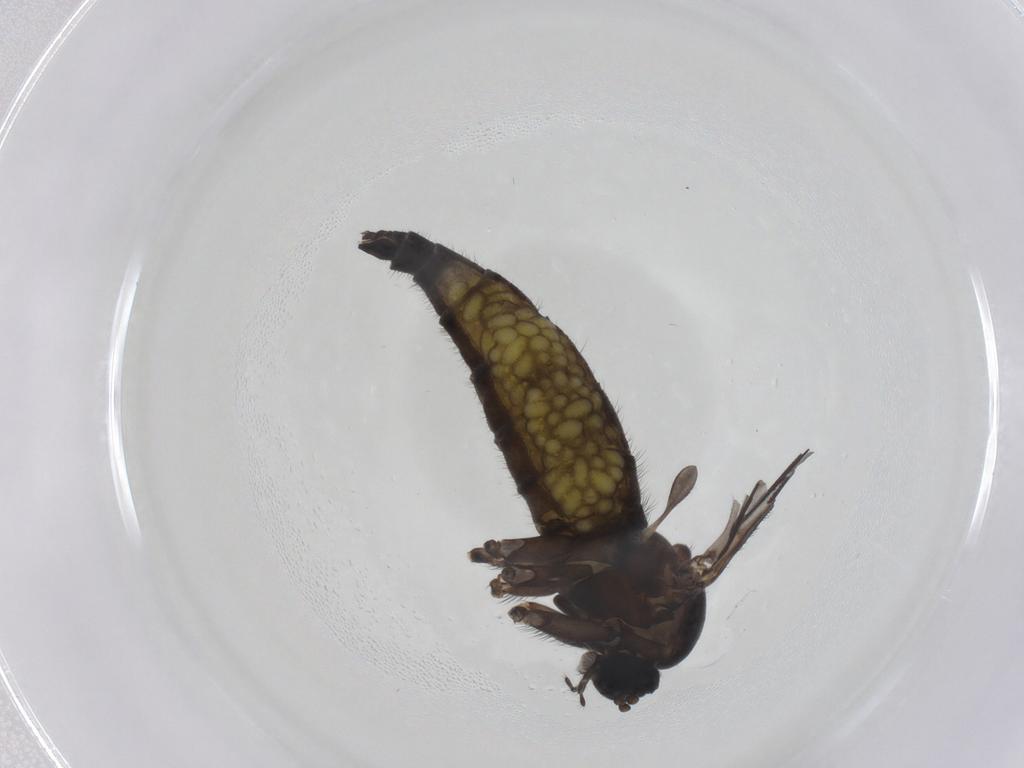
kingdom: Animalia
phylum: Arthropoda
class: Insecta
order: Diptera
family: Sciaridae
